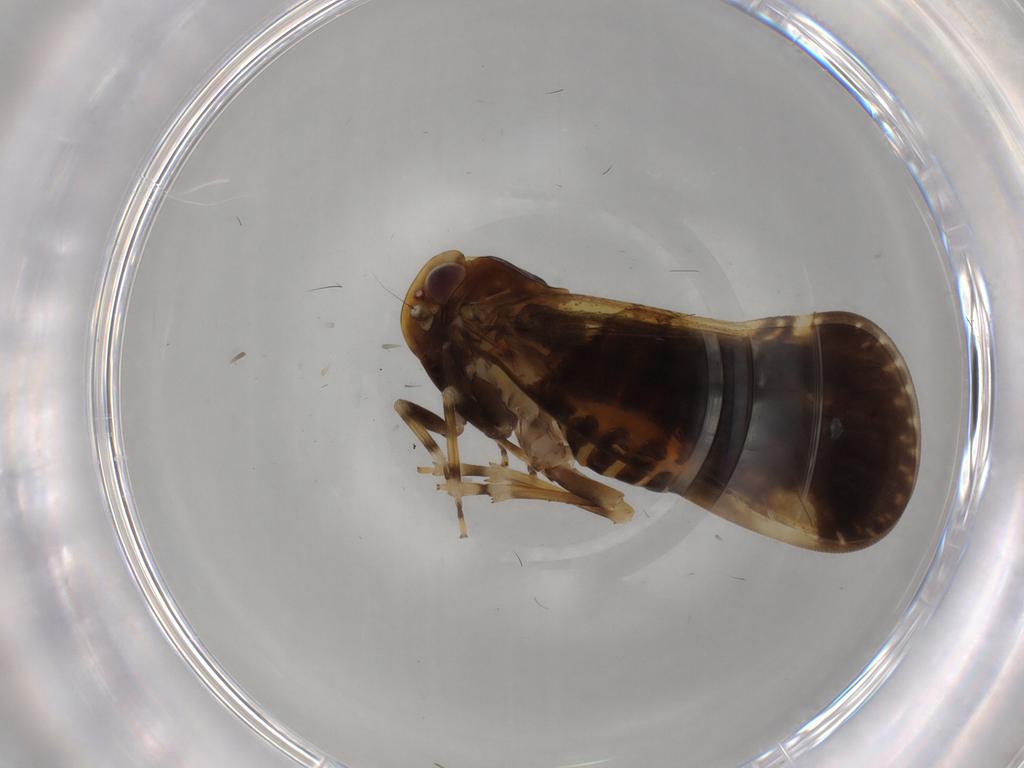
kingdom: Animalia
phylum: Arthropoda
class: Insecta
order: Hemiptera
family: Cixiidae
